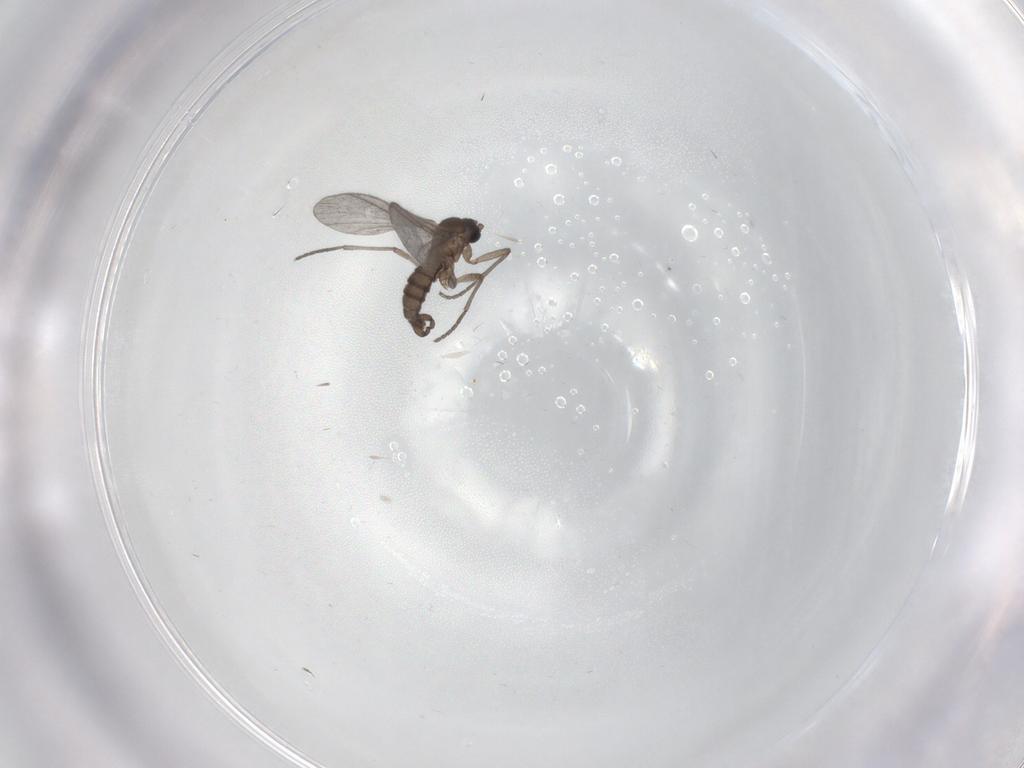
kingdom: Animalia
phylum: Arthropoda
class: Insecta
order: Diptera
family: Sciaridae
